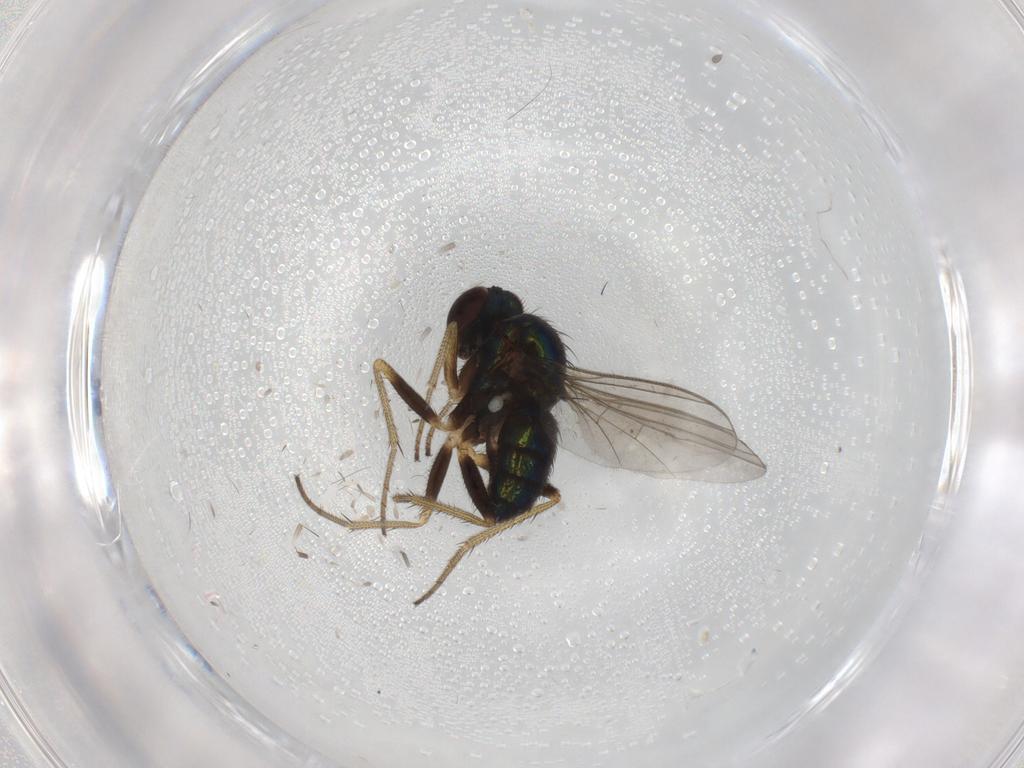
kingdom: Animalia
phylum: Arthropoda
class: Insecta
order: Diptera
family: Dolichopodidae
